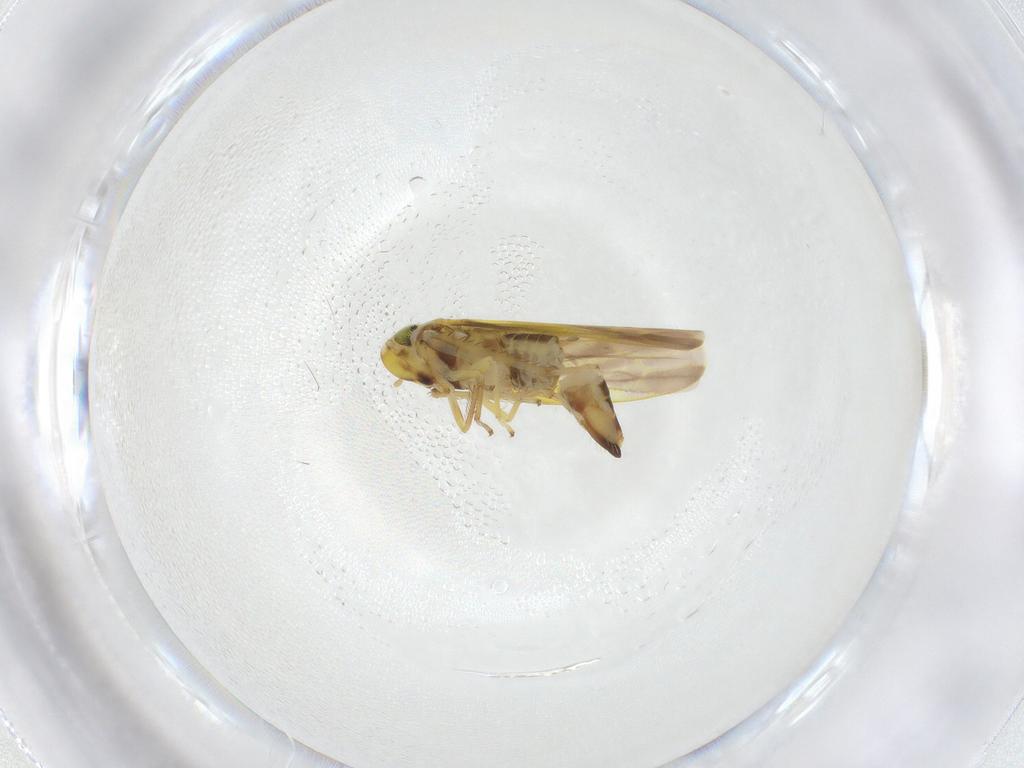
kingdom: Animalia
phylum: Arthropoda
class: Insecta
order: Hemiptera
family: Cicadellidae
